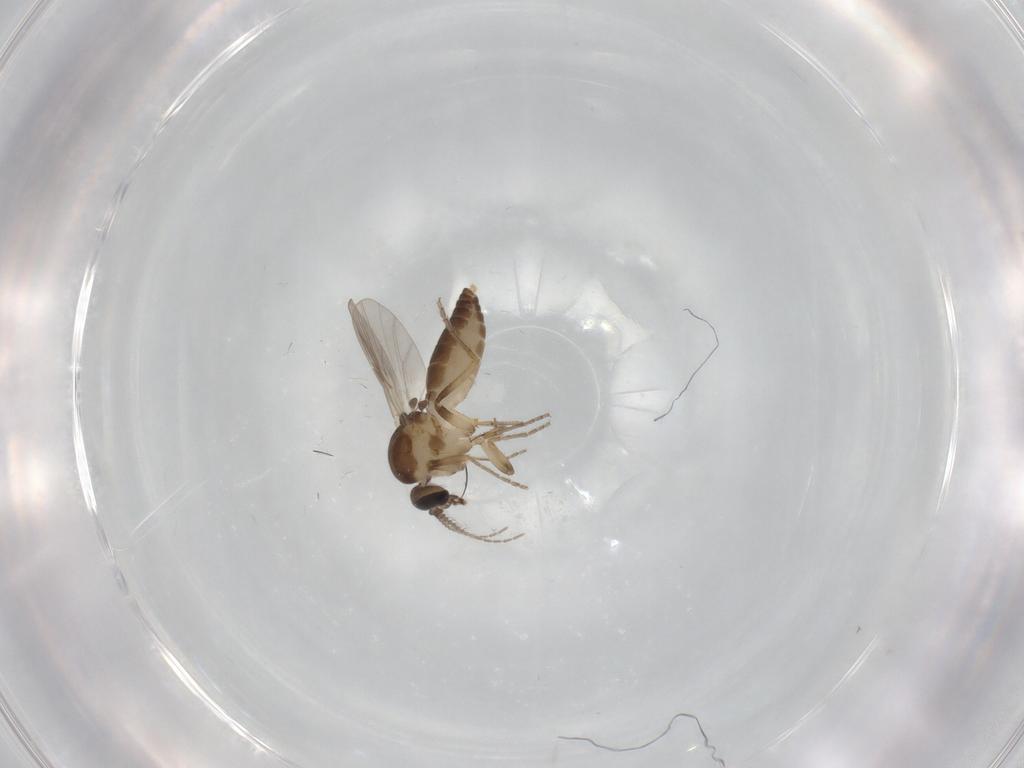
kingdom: Animalia
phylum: Arthropoda
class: Insecta
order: Diptera
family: Ceratopogonidae
